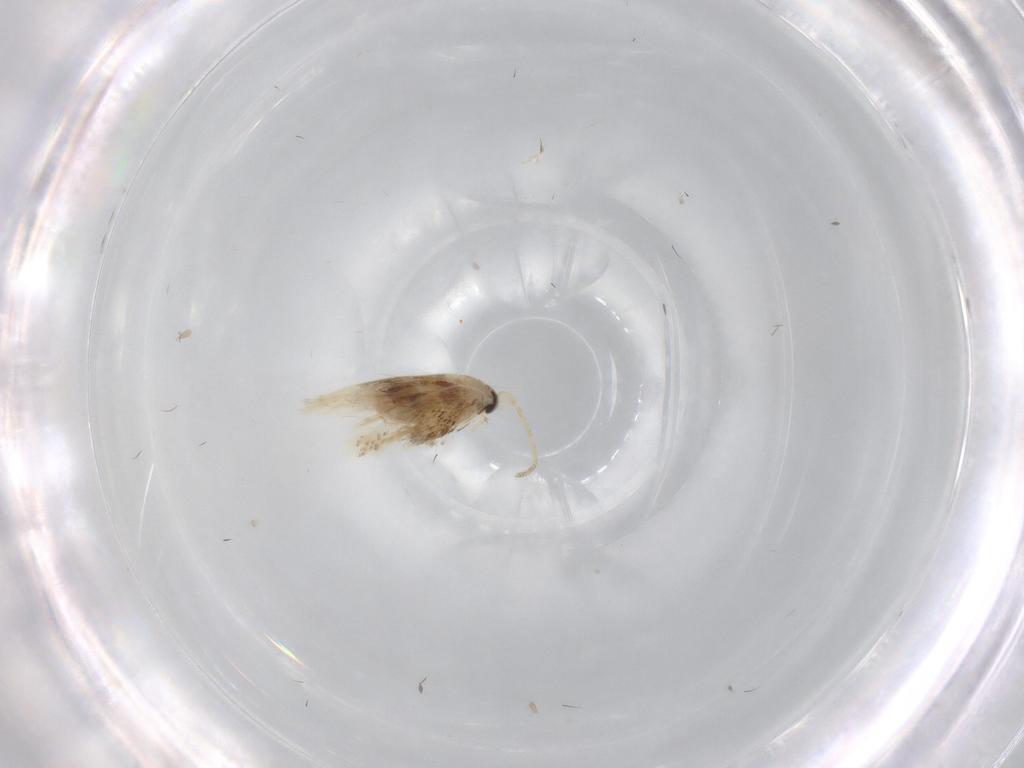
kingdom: Animalia
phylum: Arthropoda
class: Insecta
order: Lepidoptera
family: Nepticulidae
